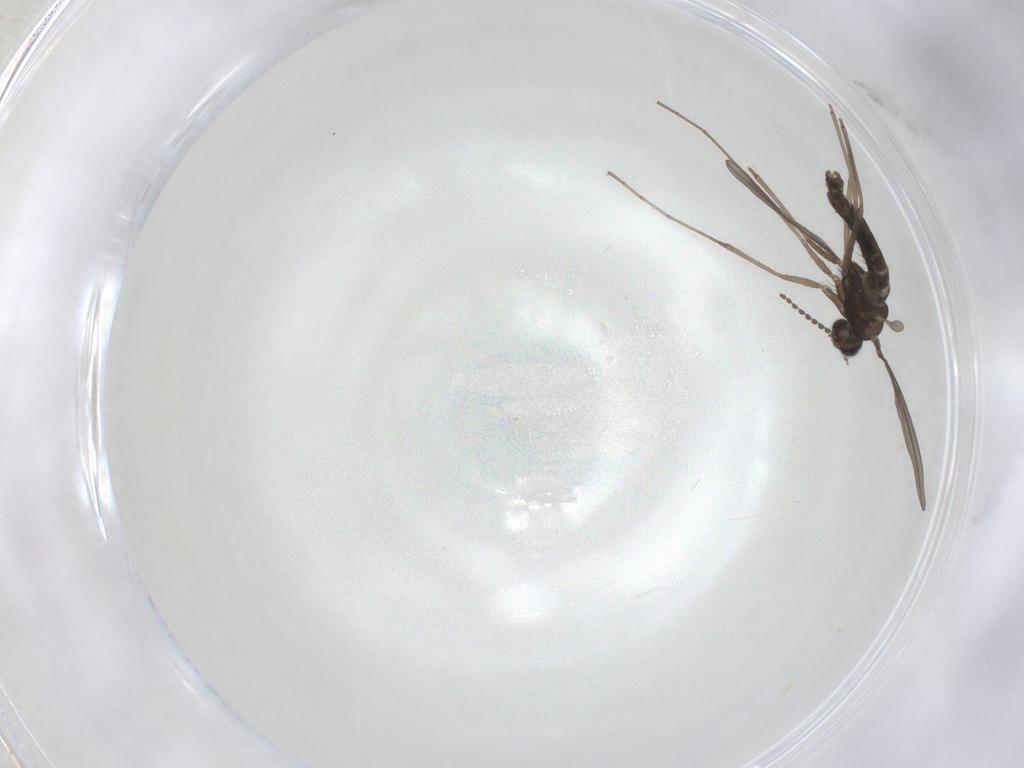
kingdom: Animalia
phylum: Arthropoda
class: Insecta
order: Diptera
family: Cecidomyiidae
